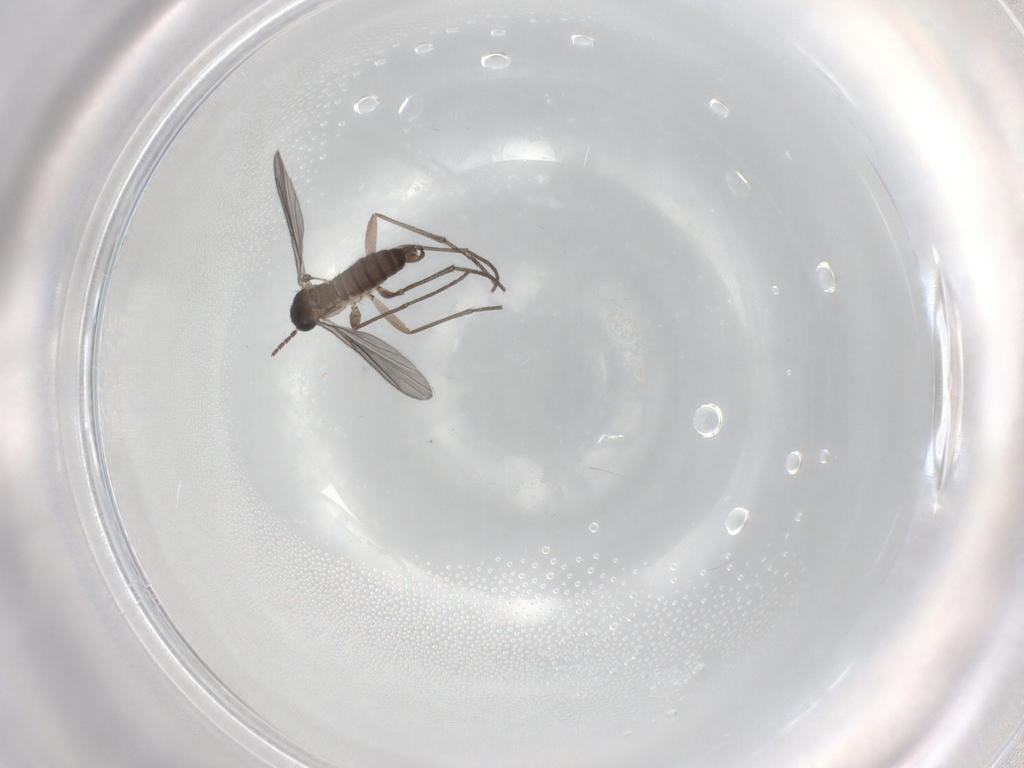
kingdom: Animalia
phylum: Arthropoda
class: Insecta
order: Diptera
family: Sciaridae
